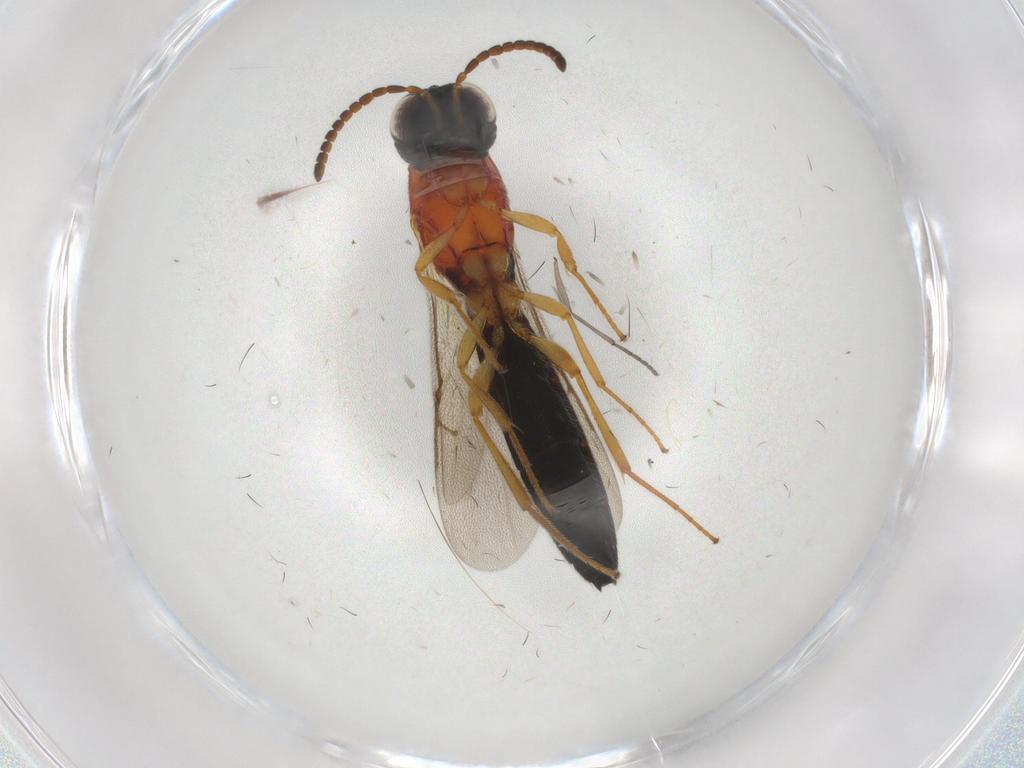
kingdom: Animalia
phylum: Arthropoda
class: Insecta
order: Hymenoptera
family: Scelionidae
